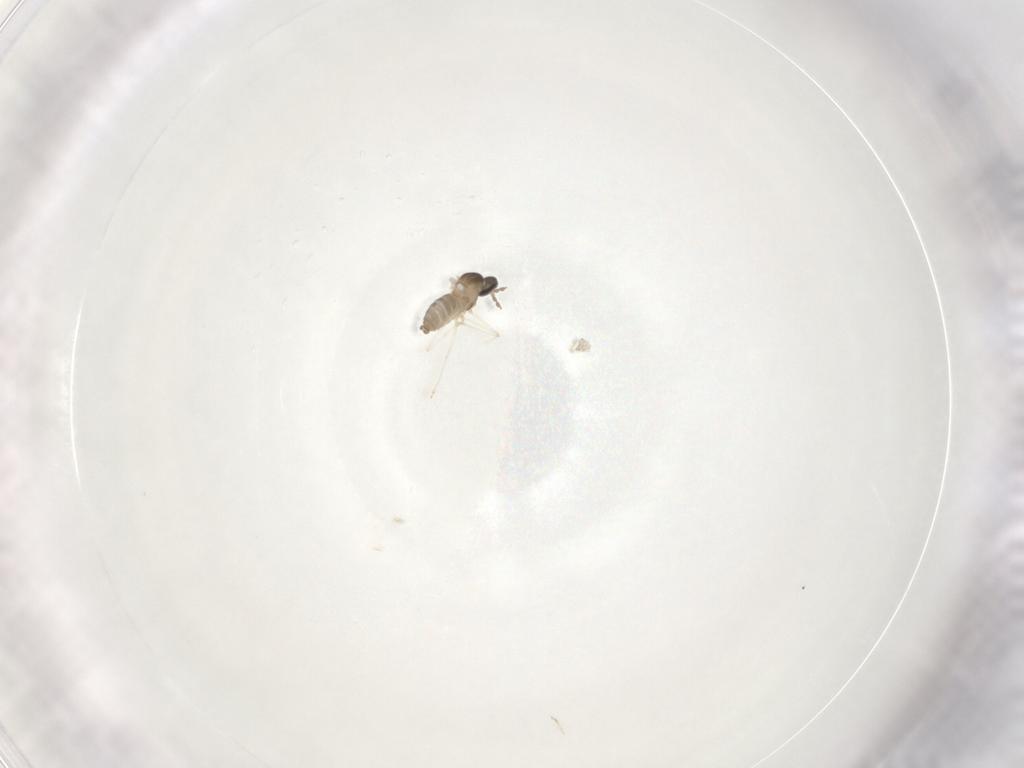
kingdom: Animalia
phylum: Arthropoda
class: Insecta
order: Diptera
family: Cecidomyiidae
